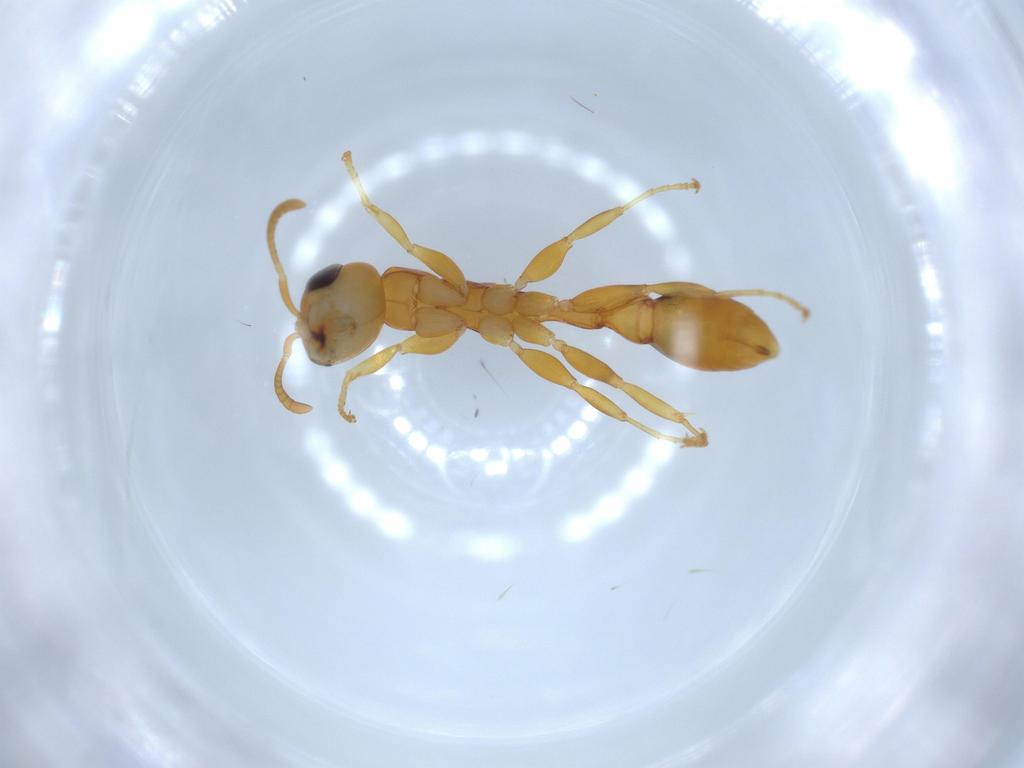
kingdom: Animalia
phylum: Arthropoda
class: Insecta
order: Hymenoptera
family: Formicidae
